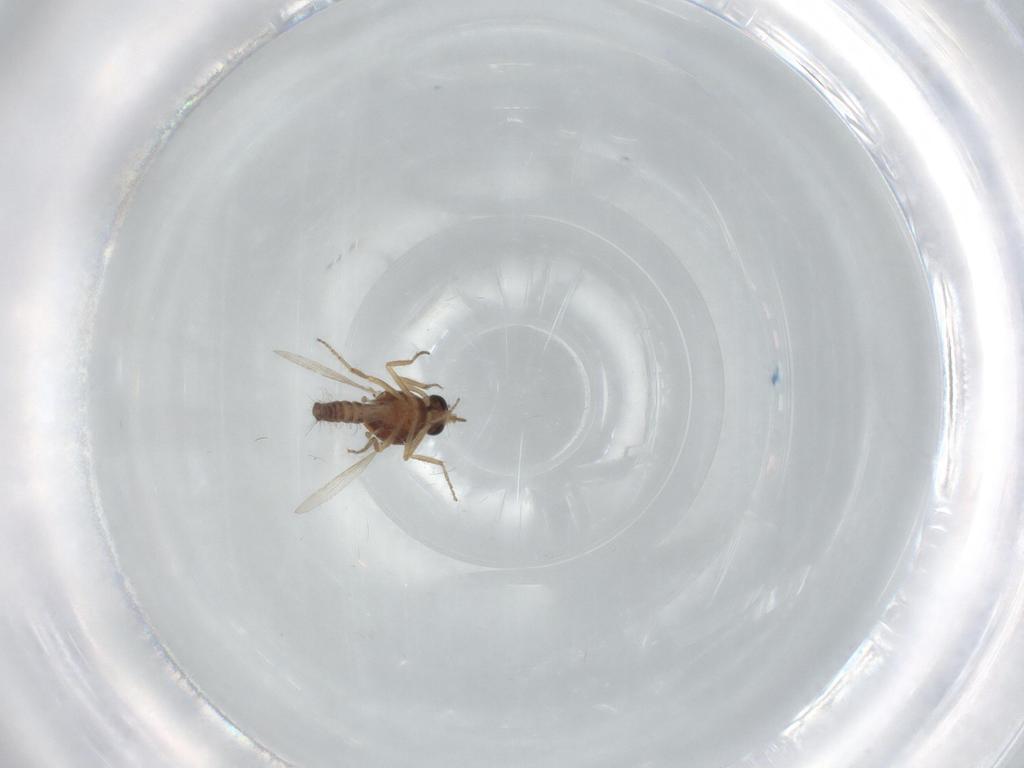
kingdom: Animalia
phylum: Arthropoda
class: Insecta
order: Diptera
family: Ceratopogonidae
